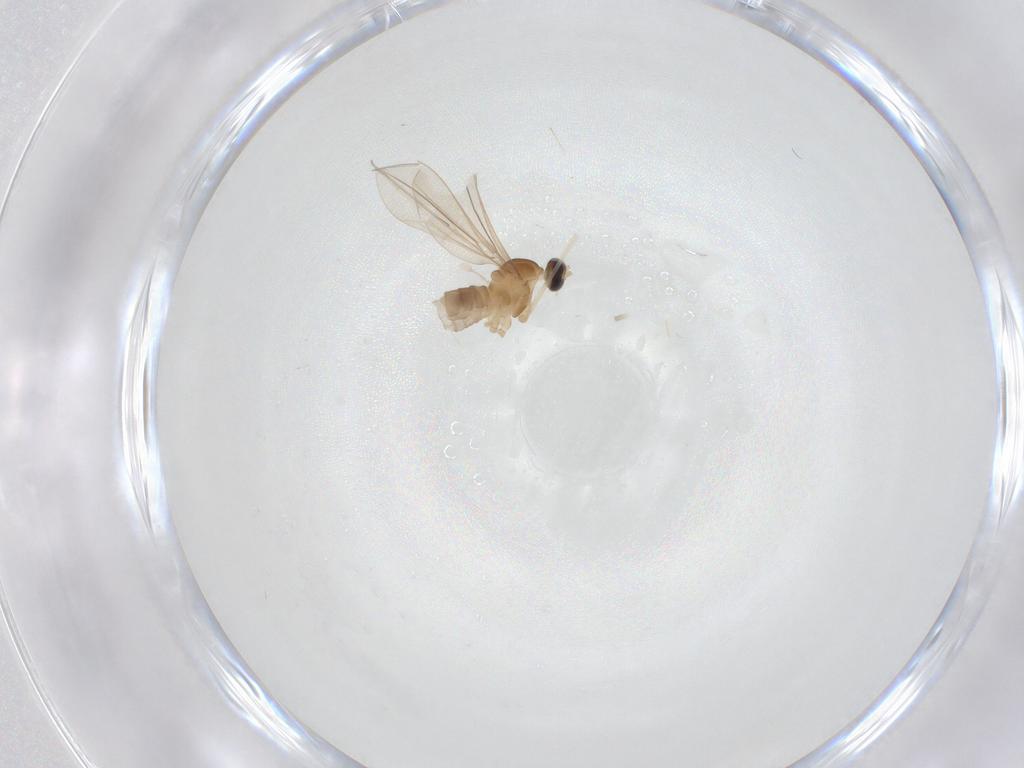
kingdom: Animalia
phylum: Arthropoda
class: Insecta
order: Diptera
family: Cecidomyiidae
